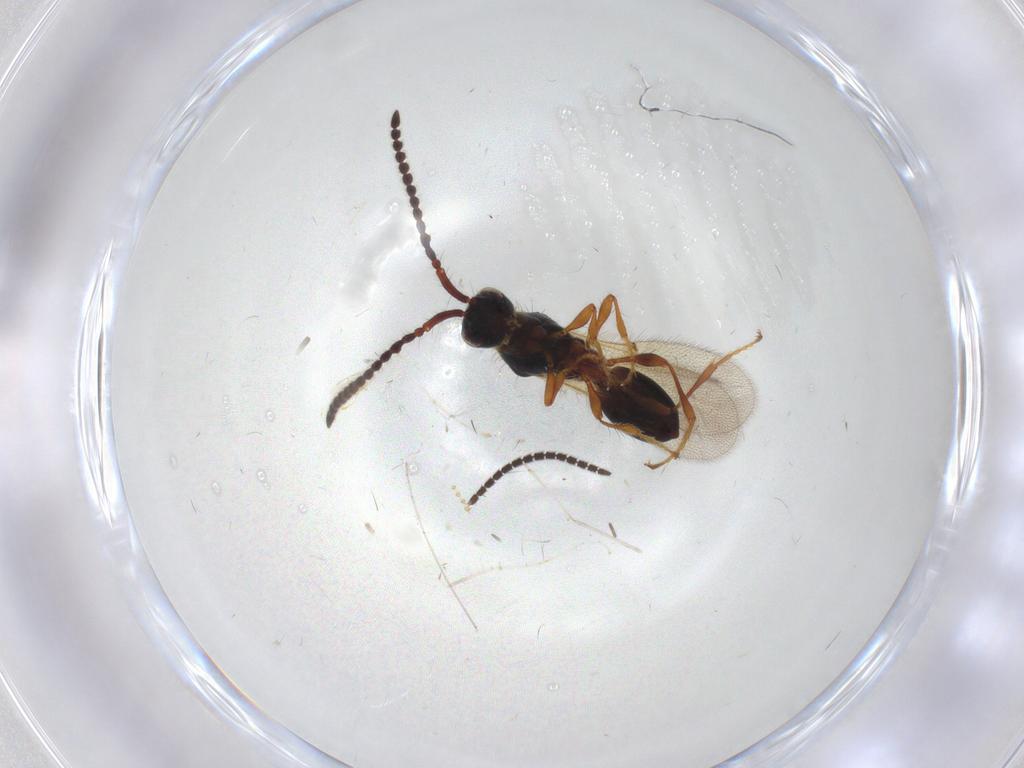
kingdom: Animalia
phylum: Arthropoda
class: Insecta
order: Hymenoptera
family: Diapriidae
